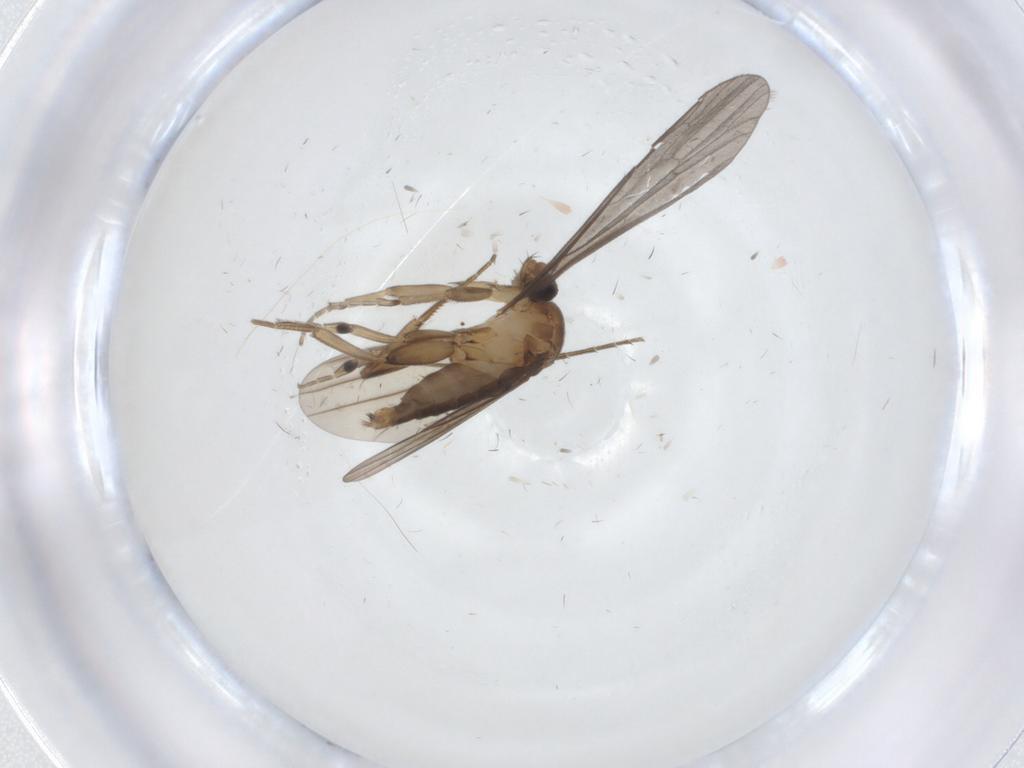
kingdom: Animalia
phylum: Arthropoda
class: Insecta
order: Diptera
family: Limoniidae
